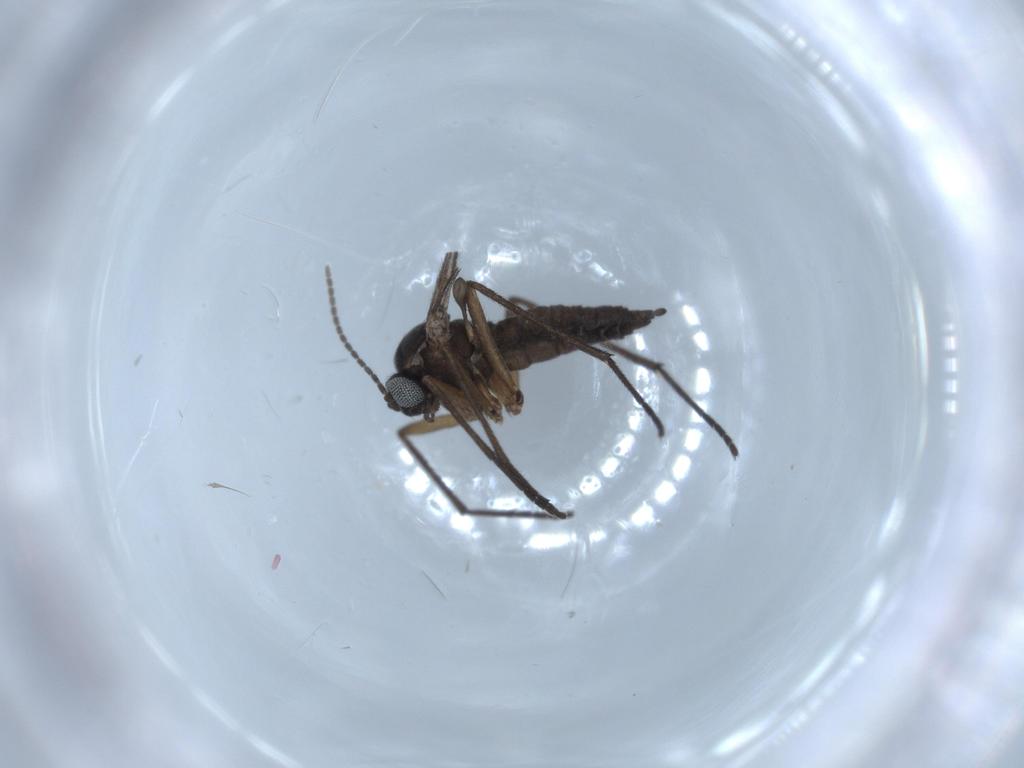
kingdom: Animalia
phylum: Arthropoda
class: Insecta
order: Diptera
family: Sciaridae
